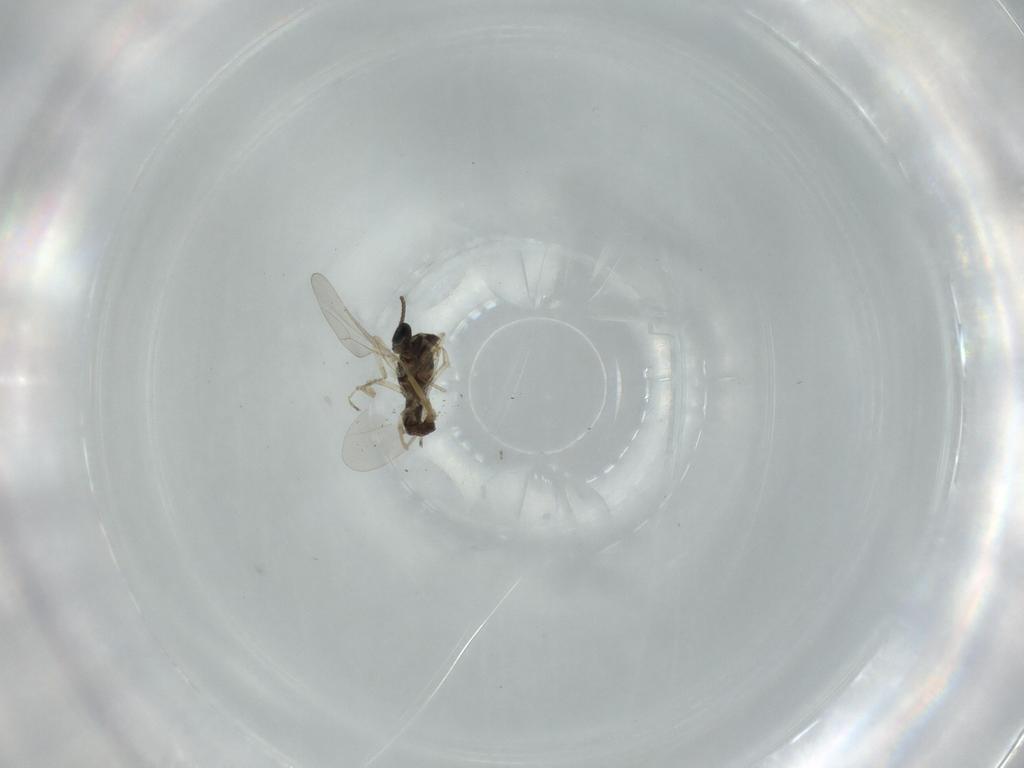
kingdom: Animalia
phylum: Arthropoda
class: Insecta
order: Diptera
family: Cecidomyiidae
